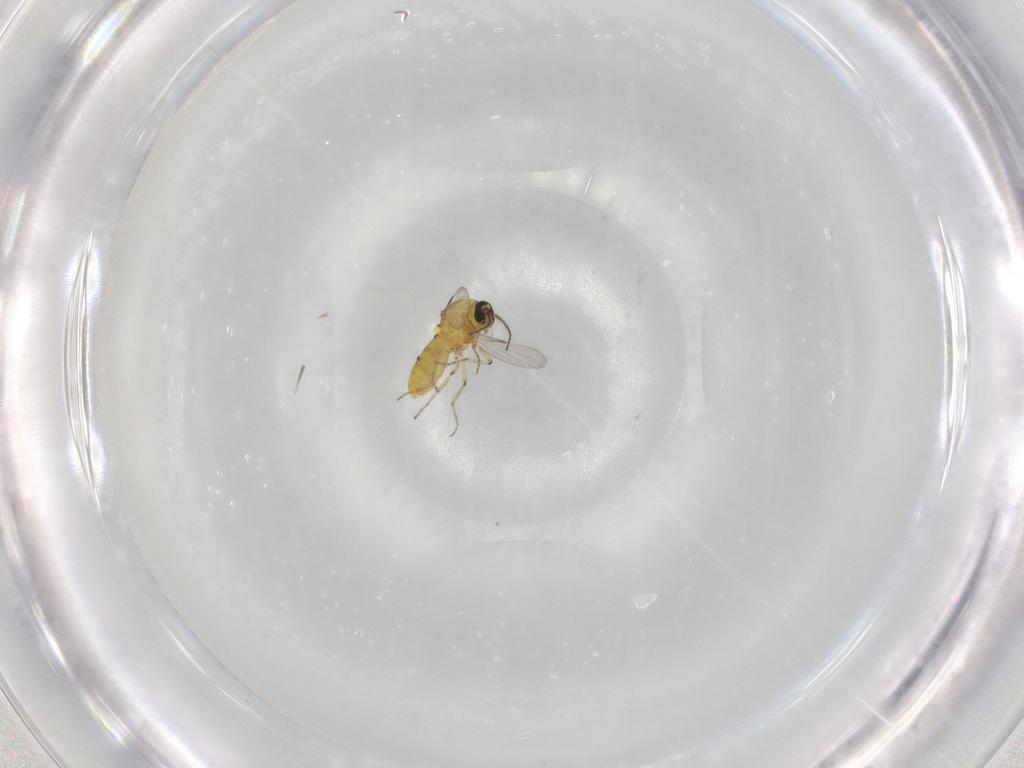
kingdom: Animalia
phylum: Arthropoda
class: Insecta
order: Diptera
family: Ceratopogonidae
